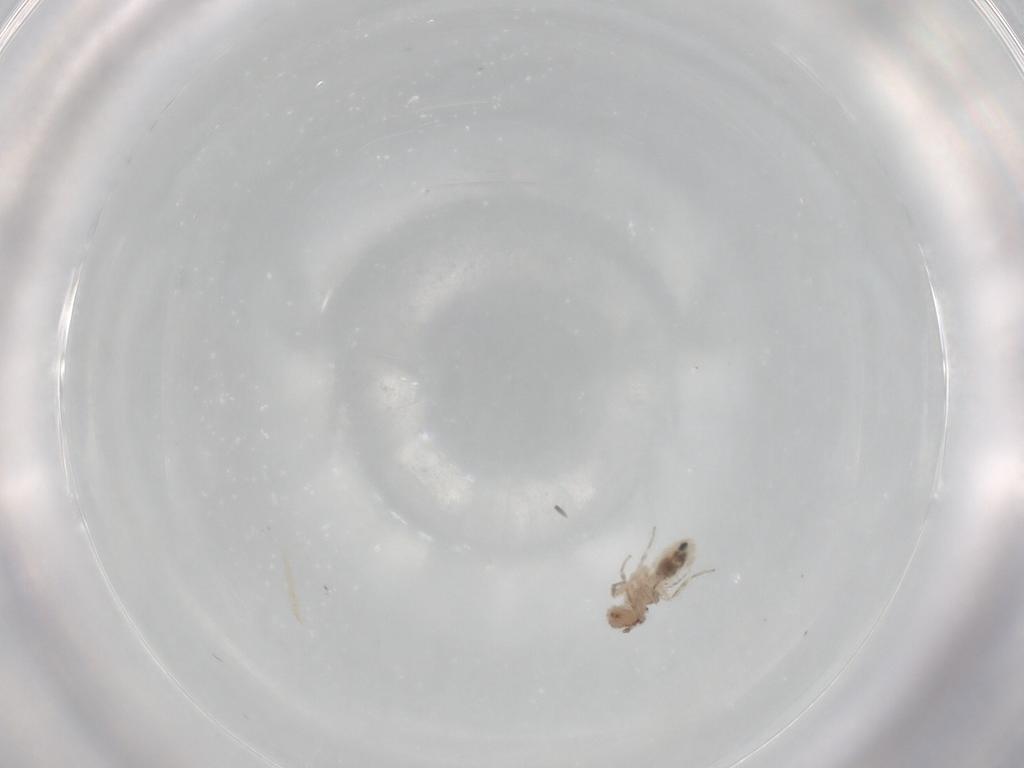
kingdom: Animalia
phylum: Arthropoda
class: Insecta
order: Psocodea
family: Lepidopsocidae
